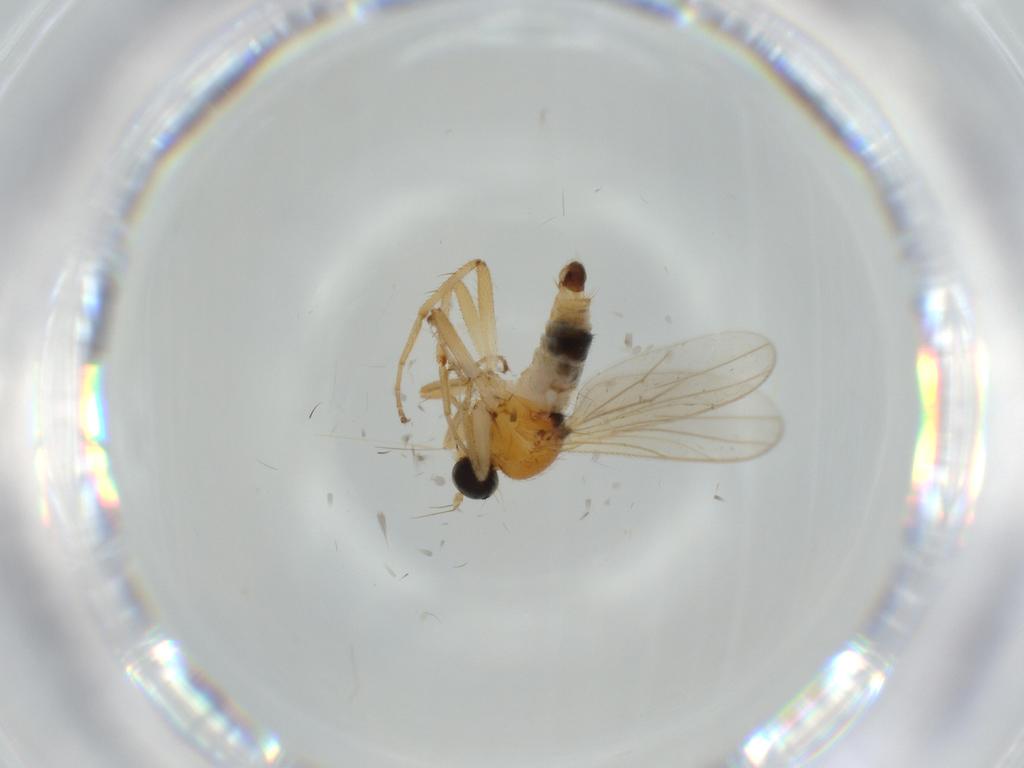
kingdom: Animalia
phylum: Arthropoda
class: Insecta
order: Diptera
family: Hybotidae
